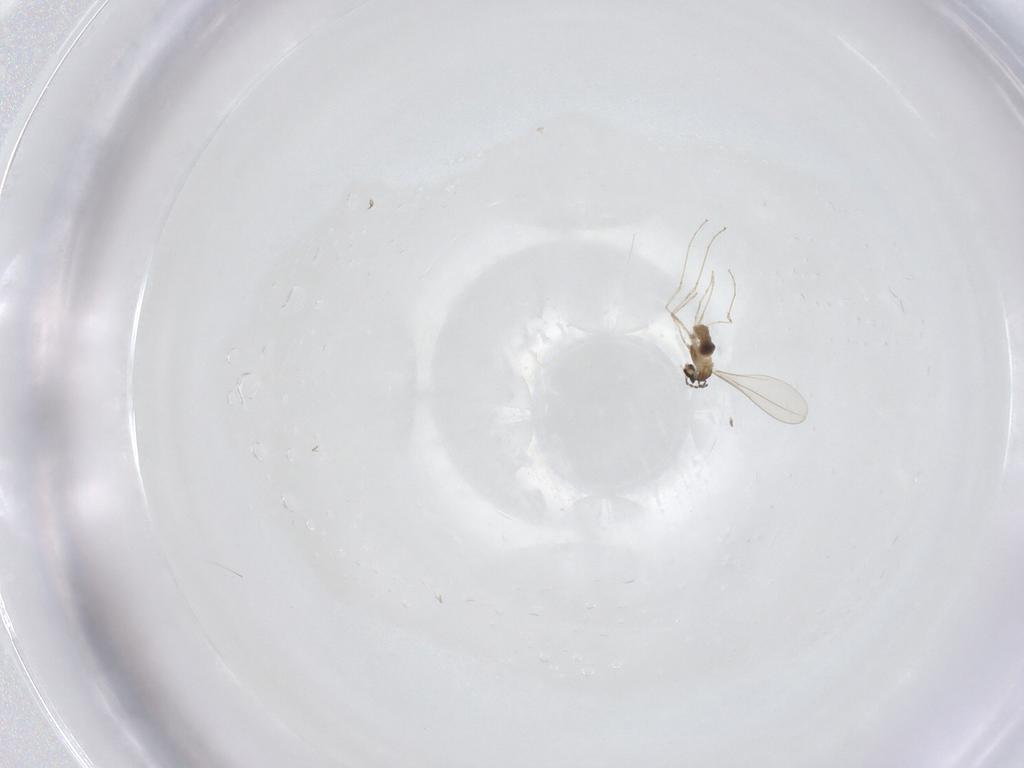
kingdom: Animalia
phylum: Arthropoda
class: Insecta
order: Diptera
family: Cecidomyiidae
